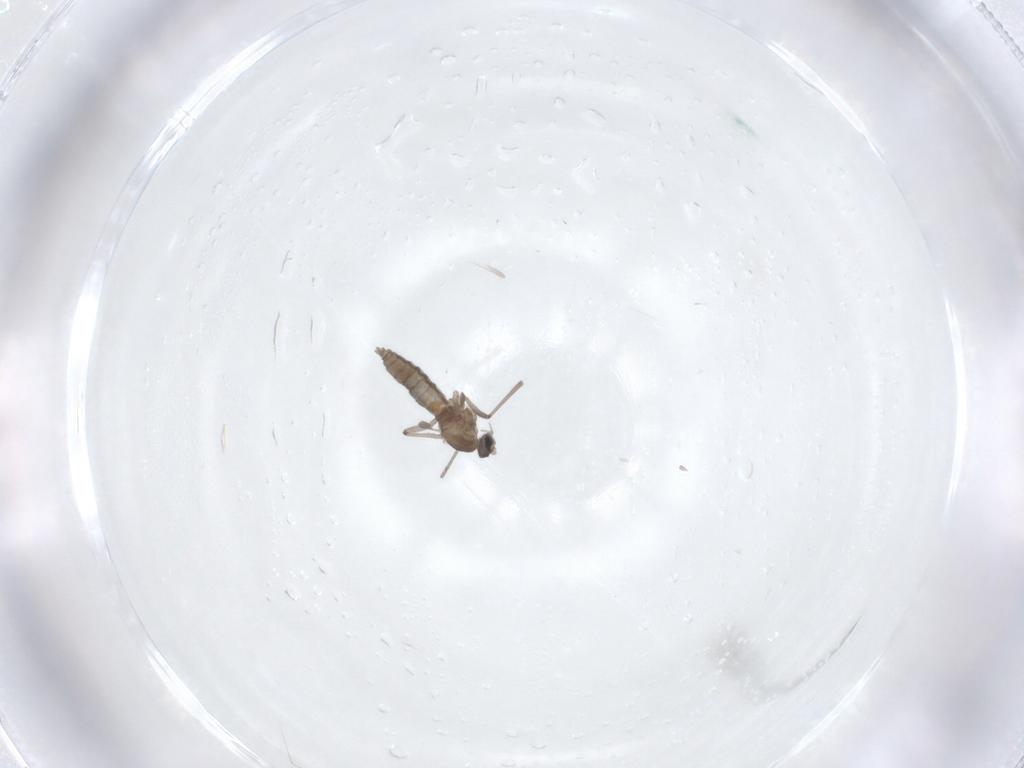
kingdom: Animalia
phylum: Arthropoda
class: Insecta
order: Diptera
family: Cecidomyiidae
